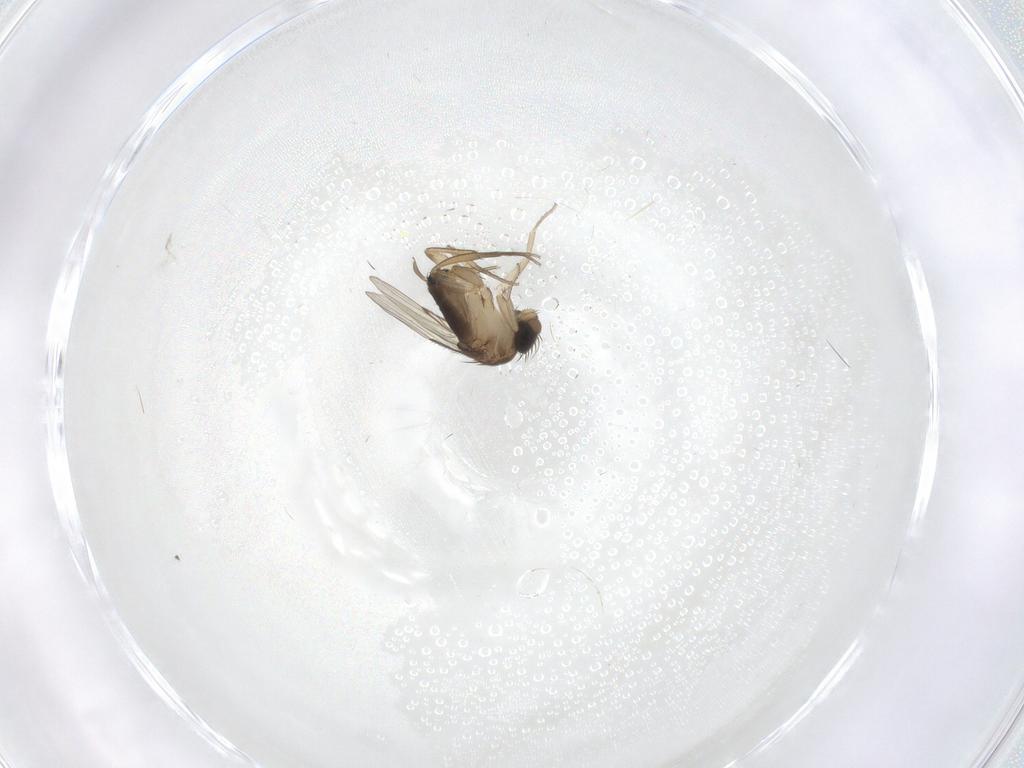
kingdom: Animalia
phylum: Arthropoda
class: Insecta
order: Diptera
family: Phoridae
